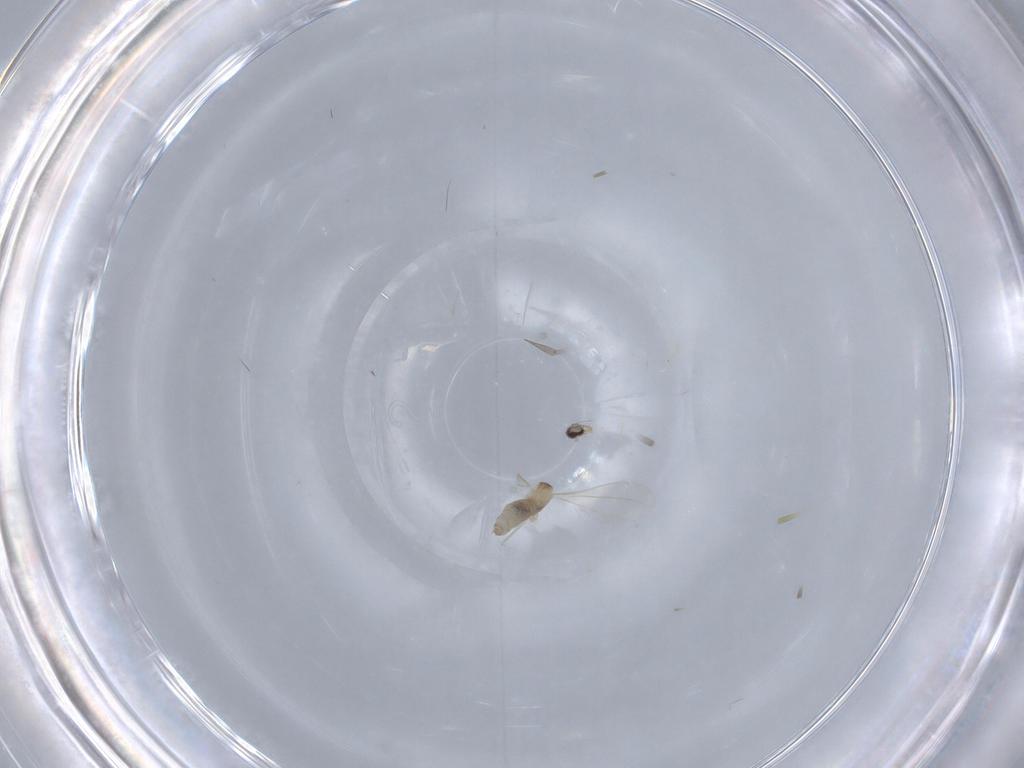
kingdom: Animalia
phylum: Arthropoda
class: Insecta
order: Diptera
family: Cecidomyiidae
